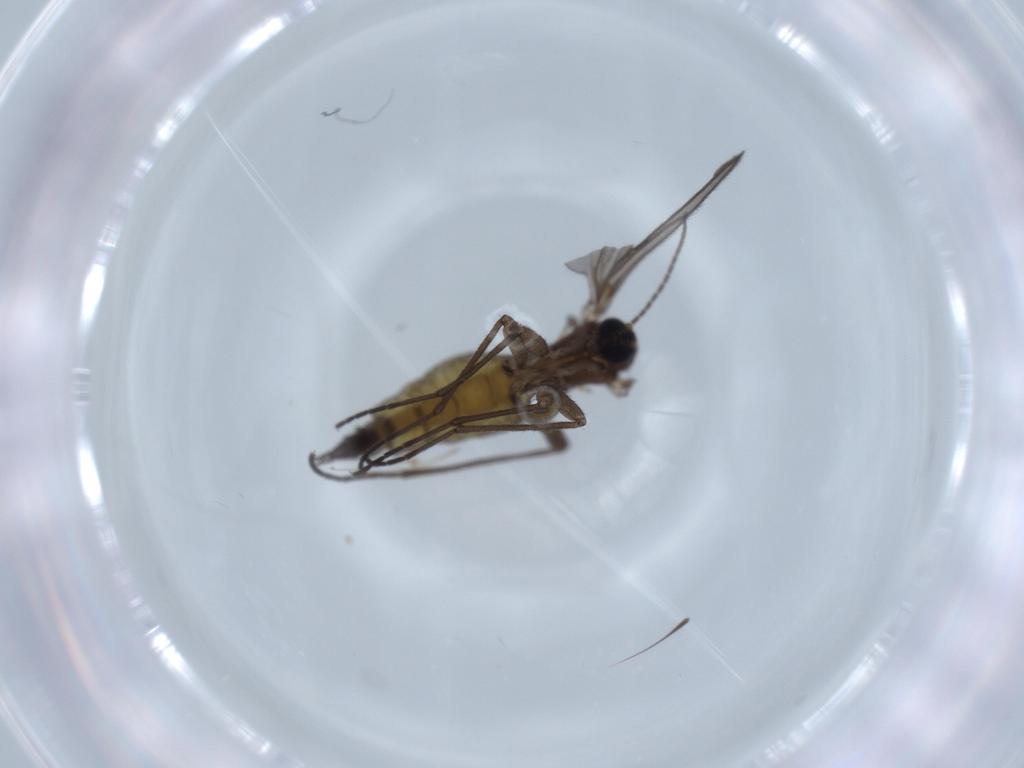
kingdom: Animalia
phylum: Arthropoda
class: Insecta
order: Diptera
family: Sciaridae
